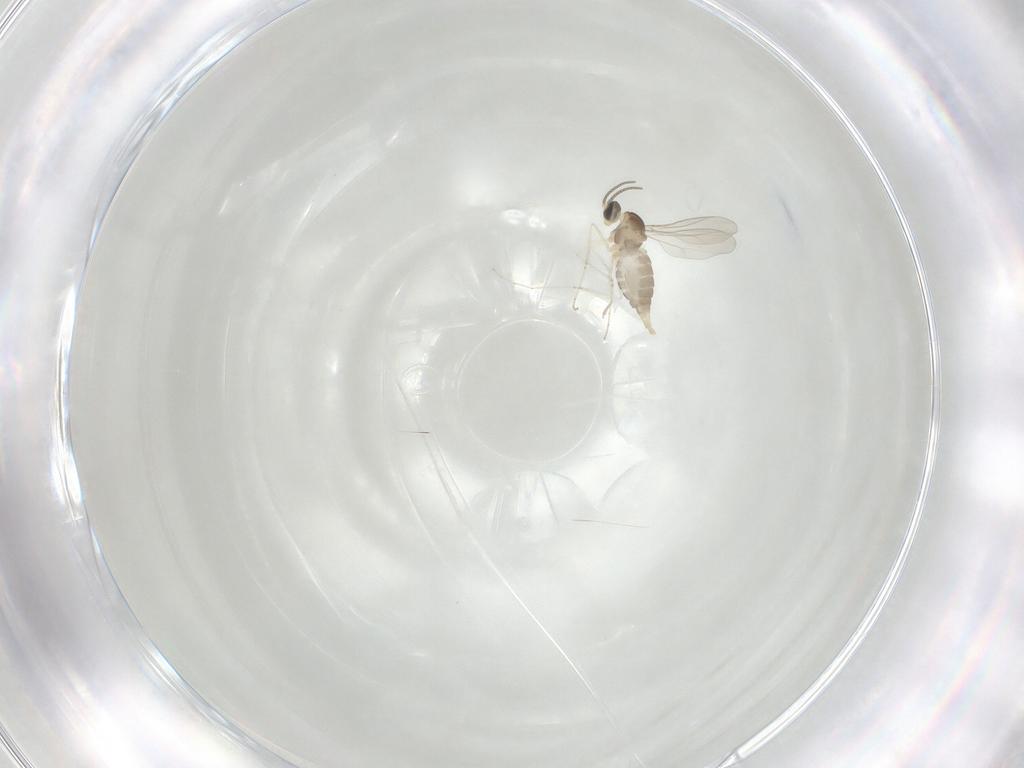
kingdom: Animalia
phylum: Arthropoda
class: Insecta
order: Diptera
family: Cecidomyiidae
